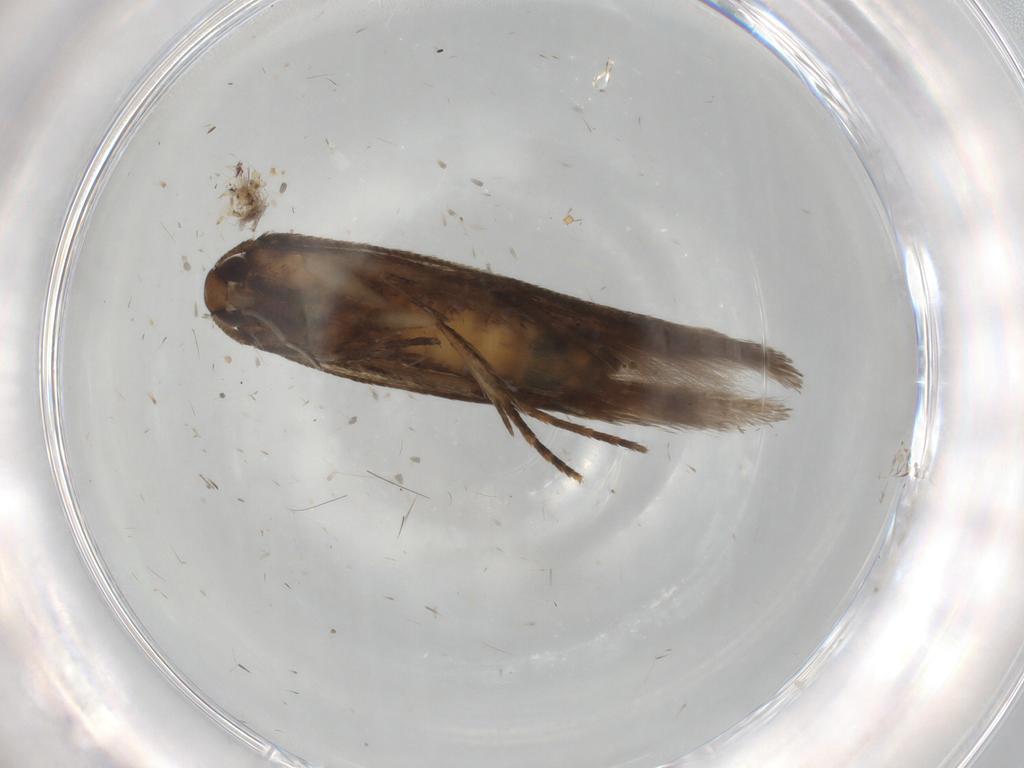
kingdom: Animalia
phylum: Arthropoda
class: Insecta
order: Lepidoptera
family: Cosmopterigidae
